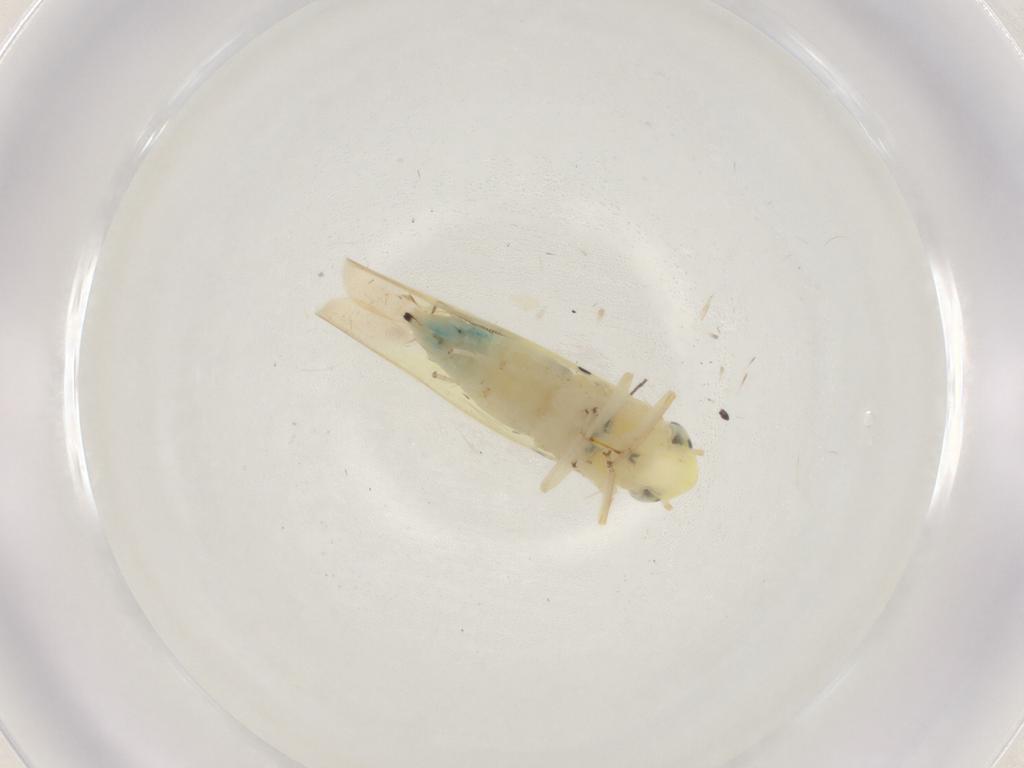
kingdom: Animalia
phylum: Arthropoda
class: Insecta
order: Hemiptera
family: Cicadellidae
